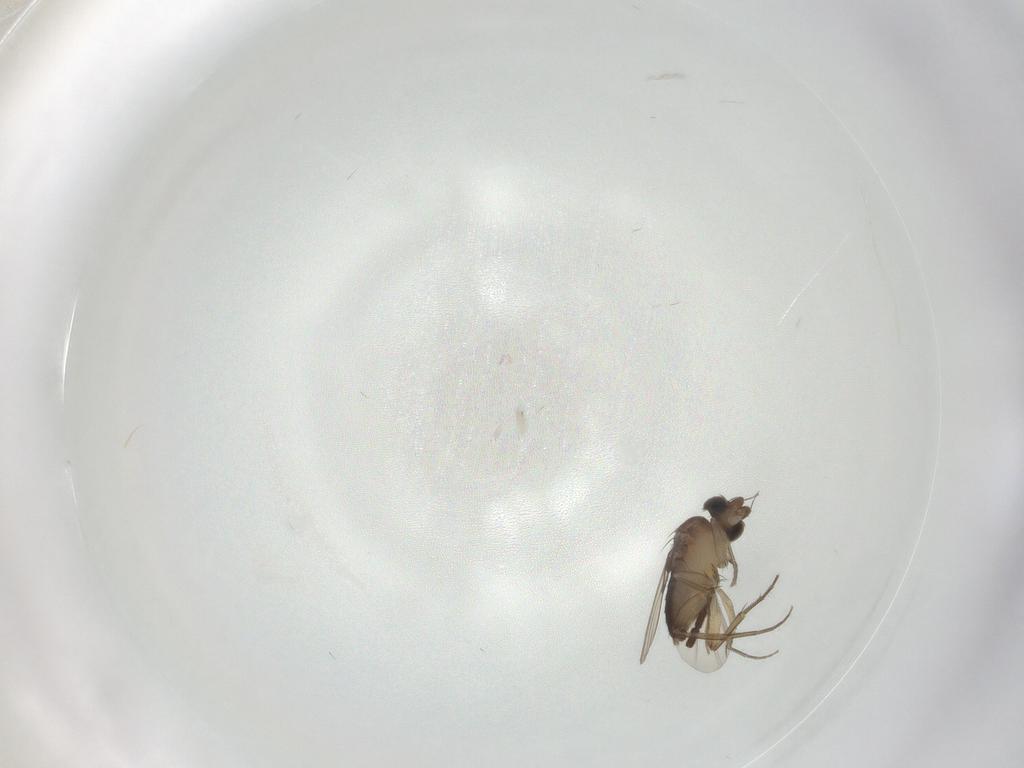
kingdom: Animalia
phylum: Arthropoda
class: Insecta
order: Diptera
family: Phoridae
